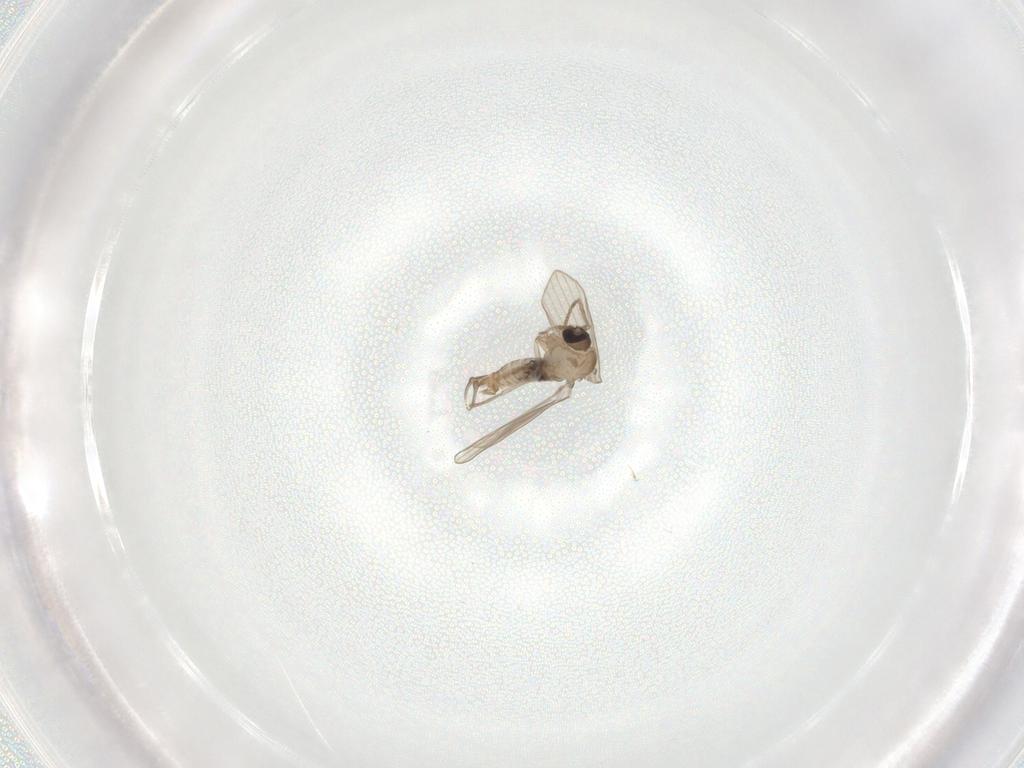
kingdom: Animalia
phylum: Arthropoda
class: Insecta
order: Diptera
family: Psychodidae
